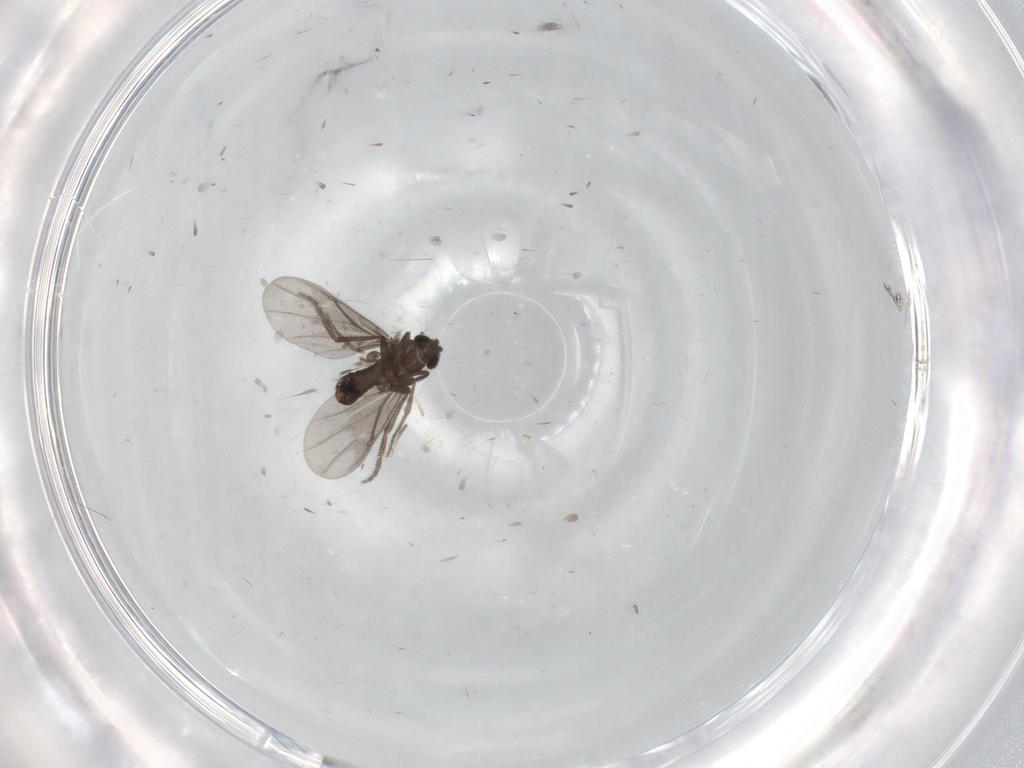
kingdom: Animalia
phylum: Arthropoda
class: Insecta
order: Diptera
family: Phoridae
